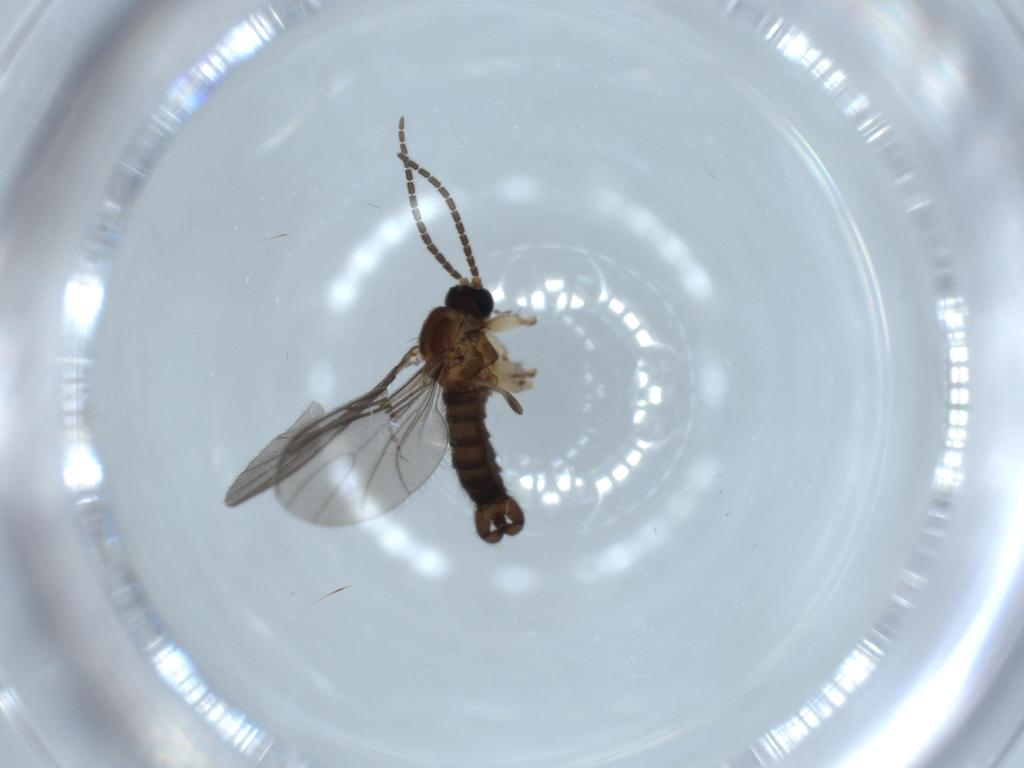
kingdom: Animalia
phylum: Arthropoda
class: Insecta
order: Diptera
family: Sciaridae
